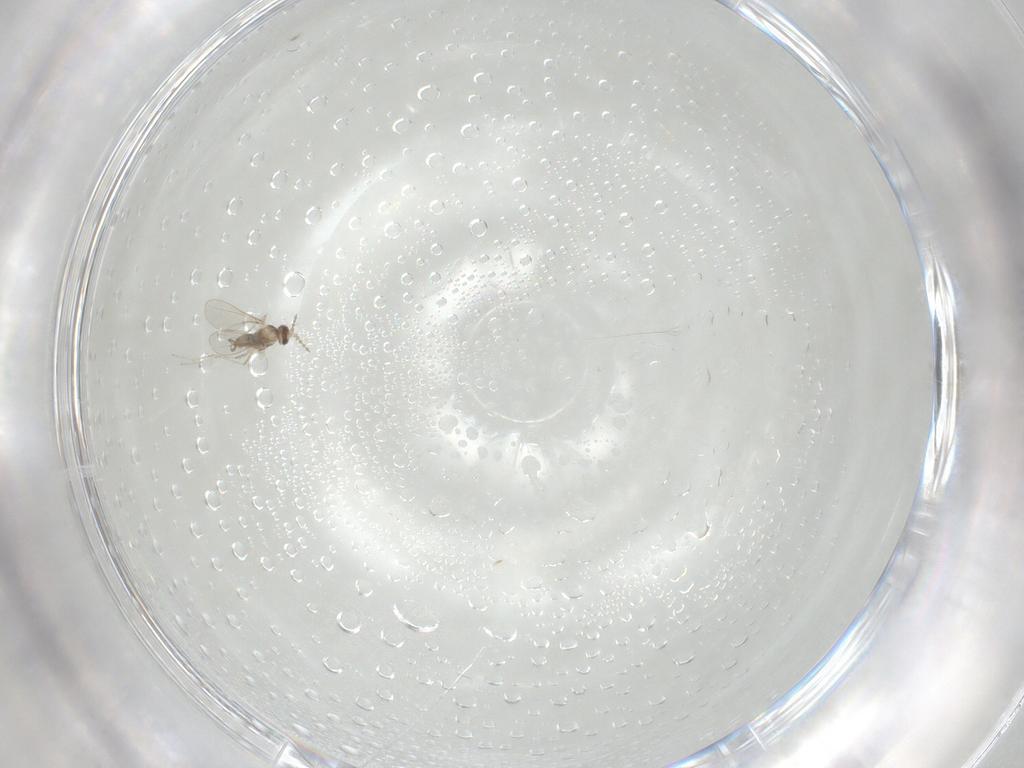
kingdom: Animalia
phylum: Arthropoda
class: Insecta
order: Diptera
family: Cecidomyiidae
